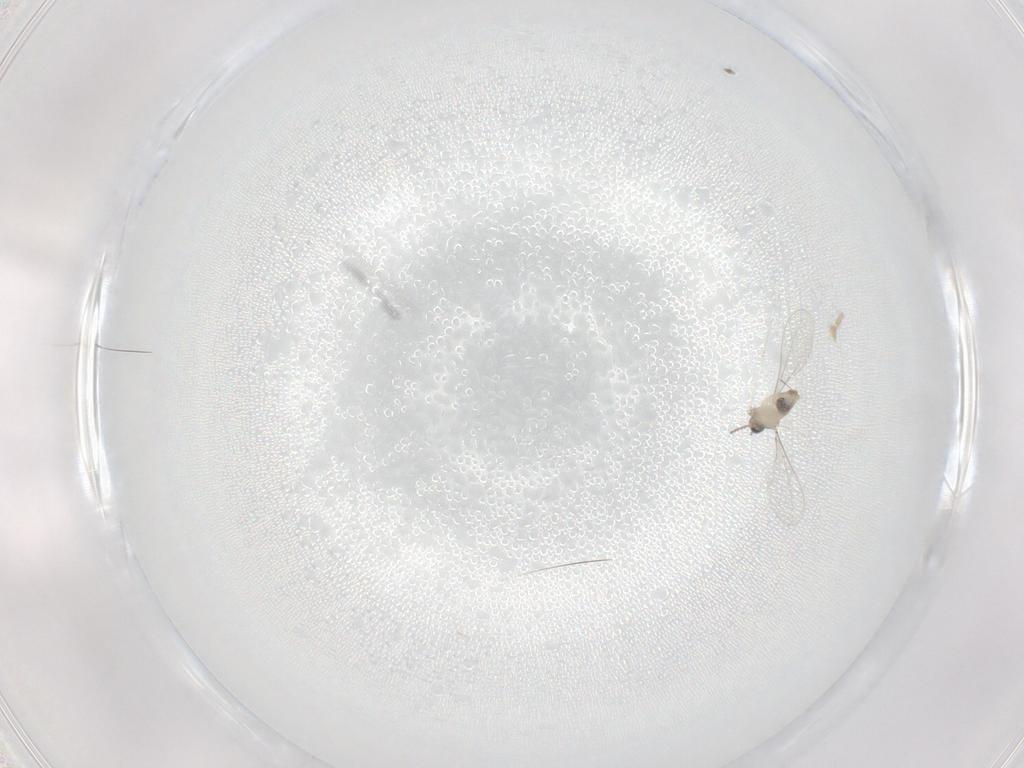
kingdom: Animalia
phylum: Arthropoda
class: Insecta
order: Diptera
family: Cecidomyiidae
